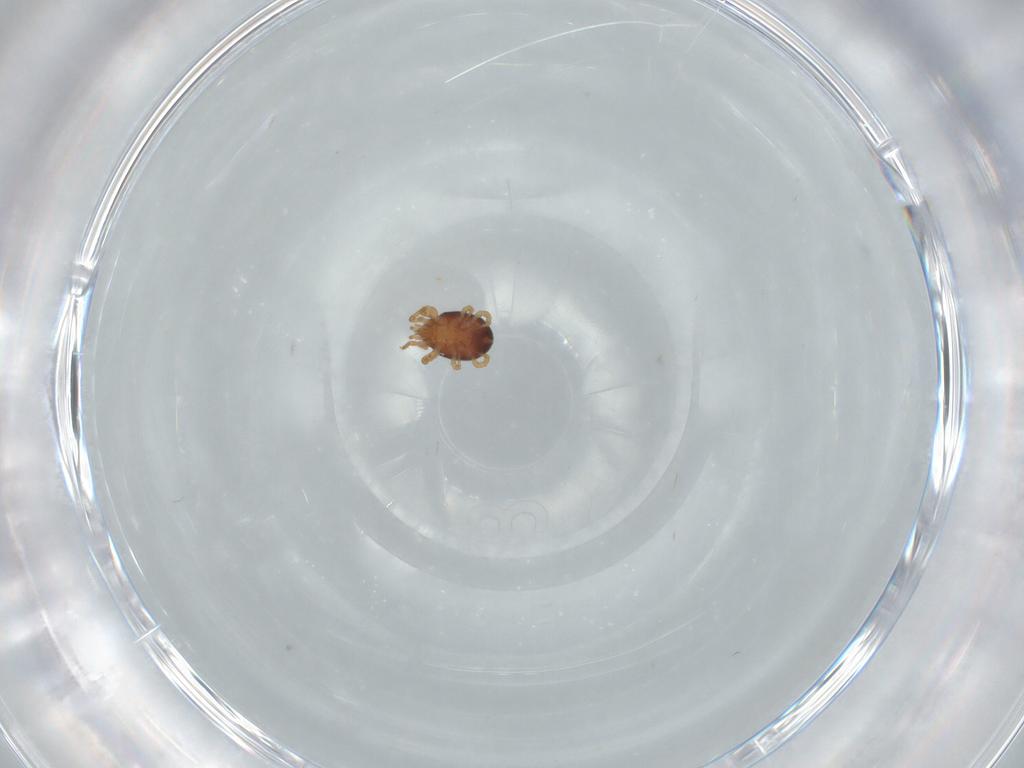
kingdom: Animalia
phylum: Arthropoda
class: Arachnida
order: Mesostigmata
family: Parasitidae
